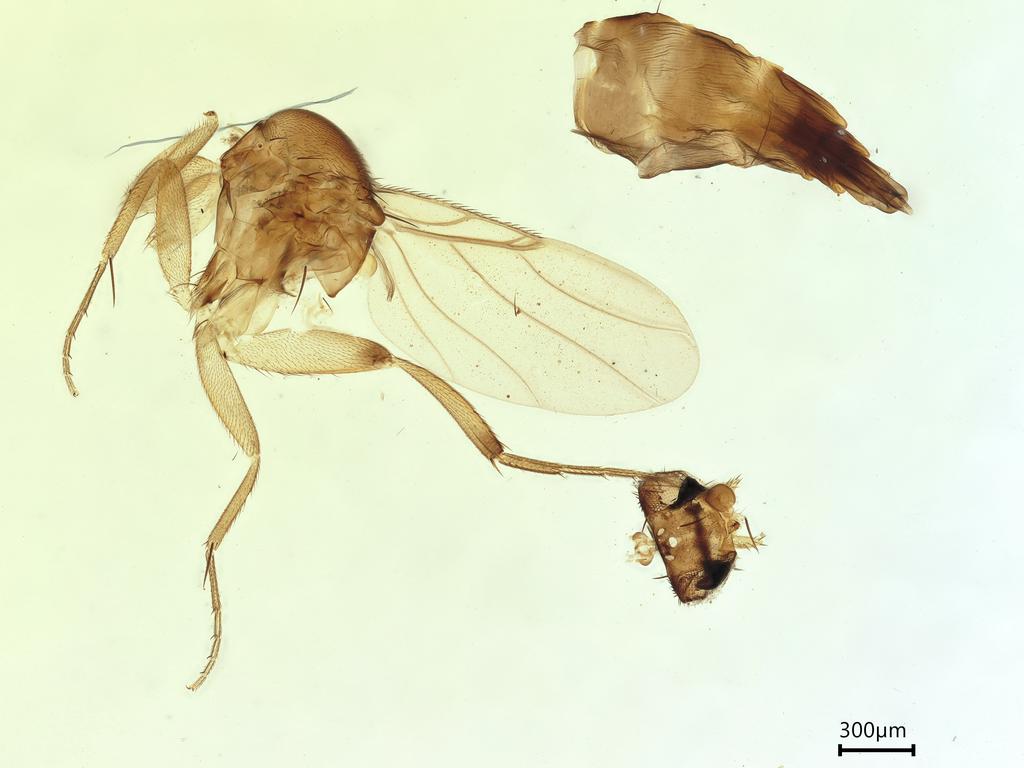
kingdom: Animalia
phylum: Arthropoda
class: Insecta
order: Diptera
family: Phoridae
